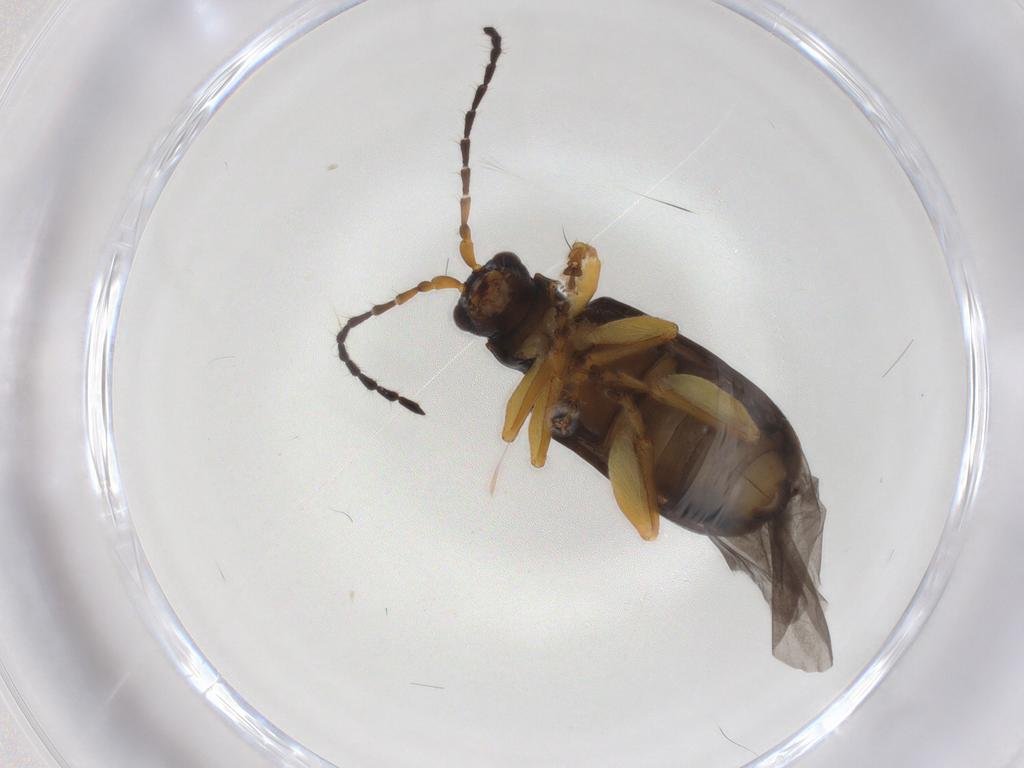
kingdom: Animalia
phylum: Arthropoda
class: Insecta
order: Coleoptera
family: Chrysomelidae
